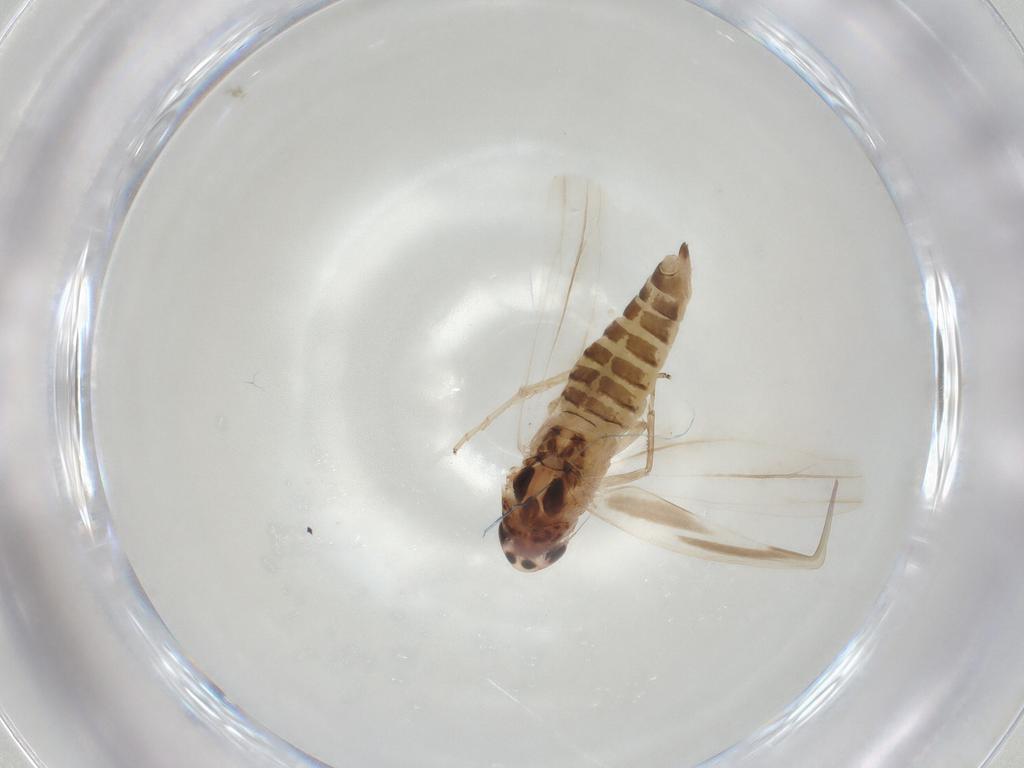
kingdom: Animalia
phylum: Arthropoda
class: Insecta
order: Hemiptera
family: Cicadellidae
